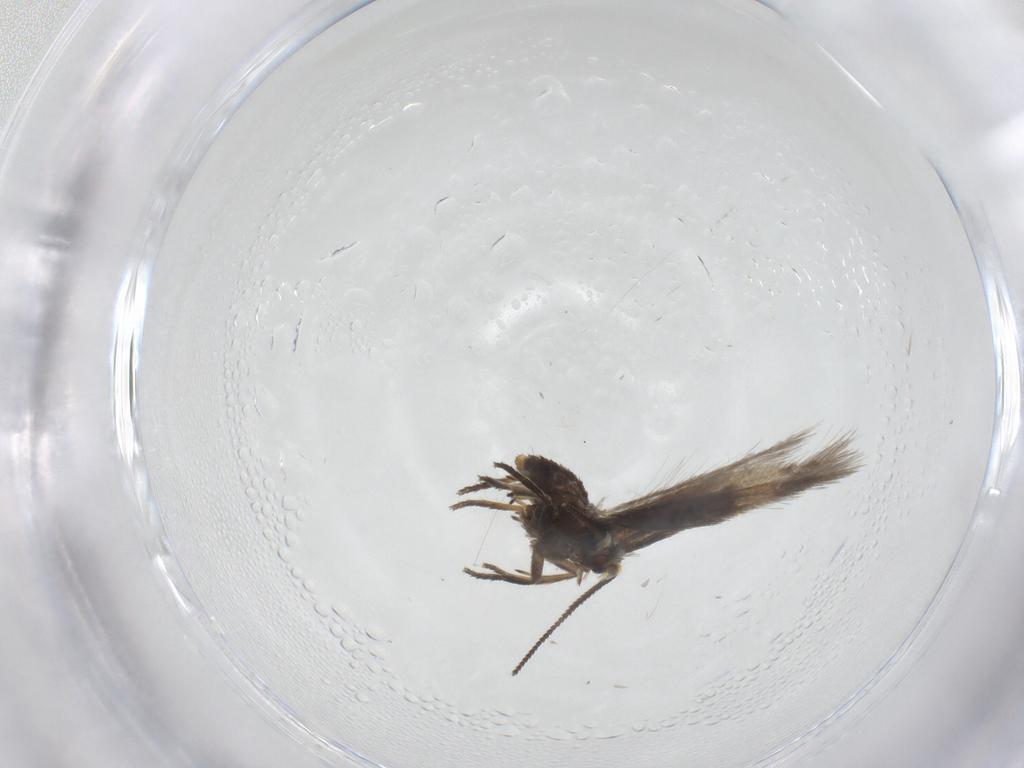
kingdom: Animalia
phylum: Arthropoda
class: Insecta
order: Lepidoptera
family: Nepticulidae
